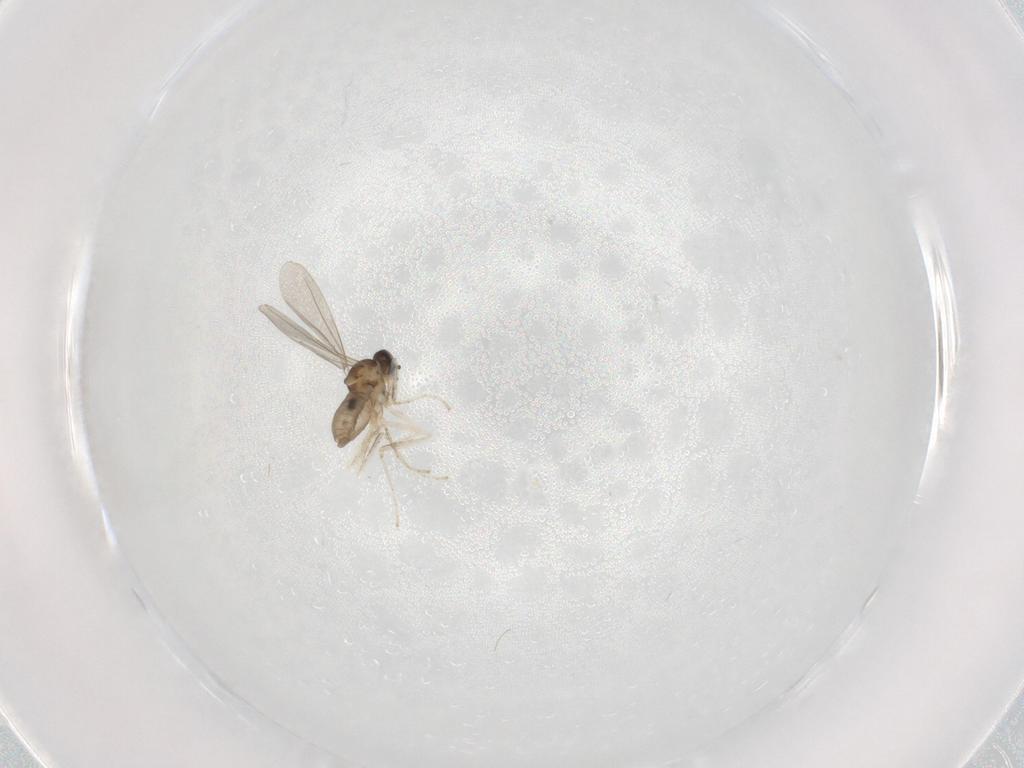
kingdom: Animalia
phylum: Arthropoda
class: Insecta
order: Diptera
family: Cecidomyiidae
